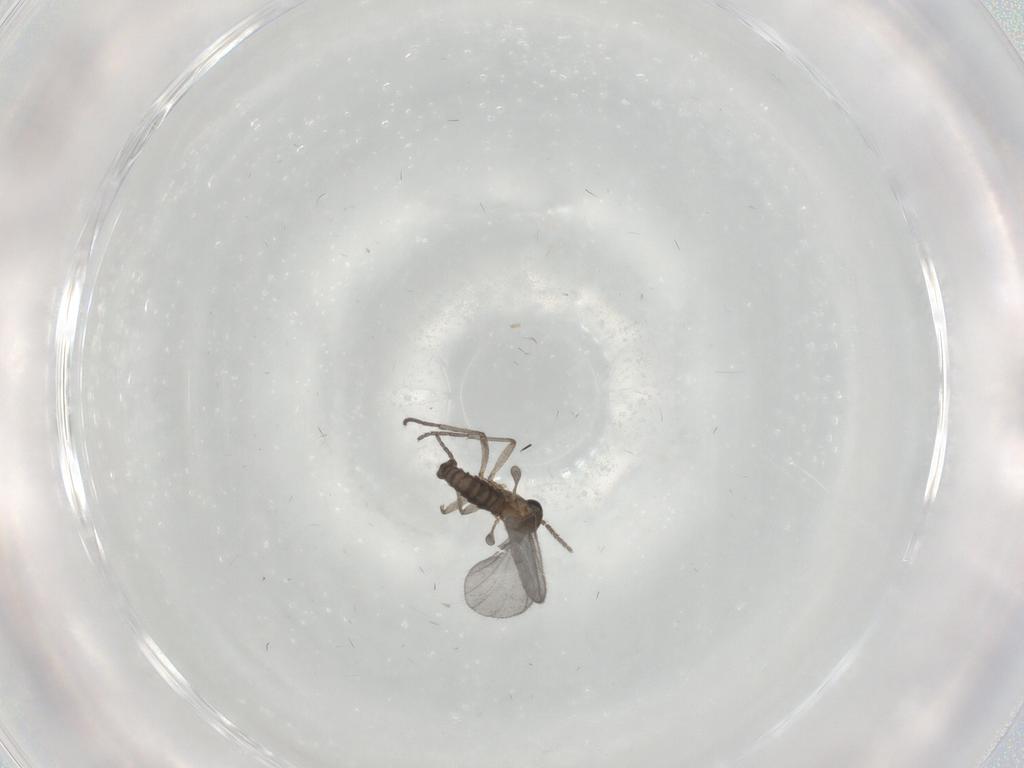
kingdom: Animalia
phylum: Arthropoda
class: Insecta
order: Diptera
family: Sciaridae
